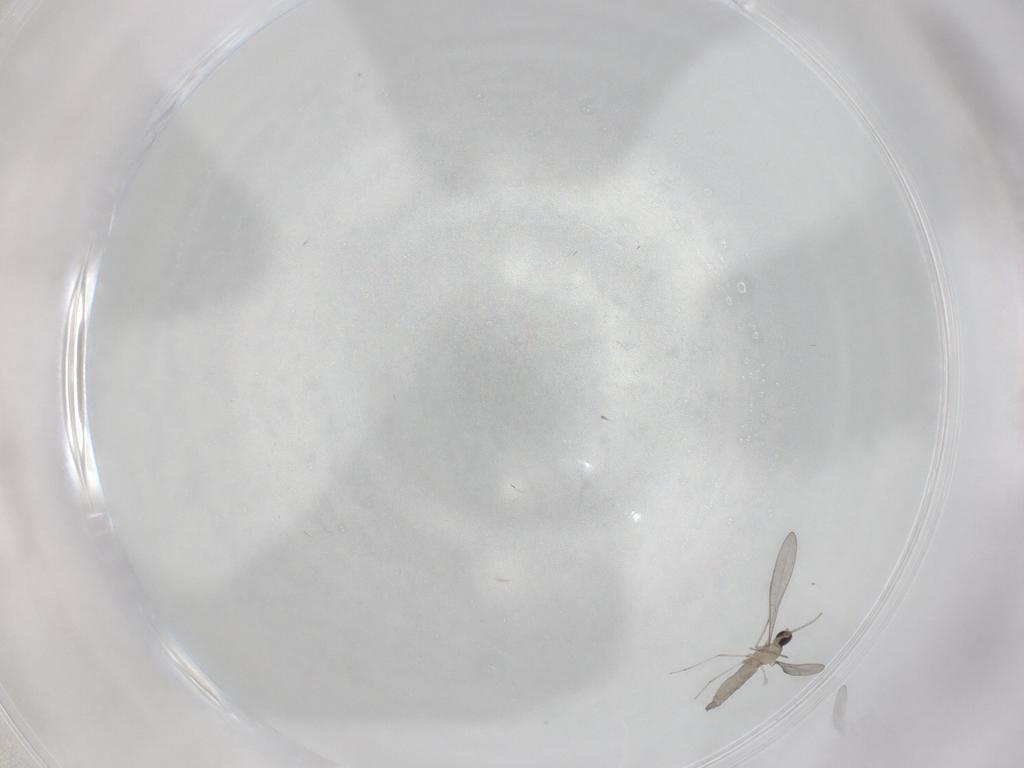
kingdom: Animalia
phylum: Arthropoda
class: Insecta
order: Diptera
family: Cecidomyiidae
